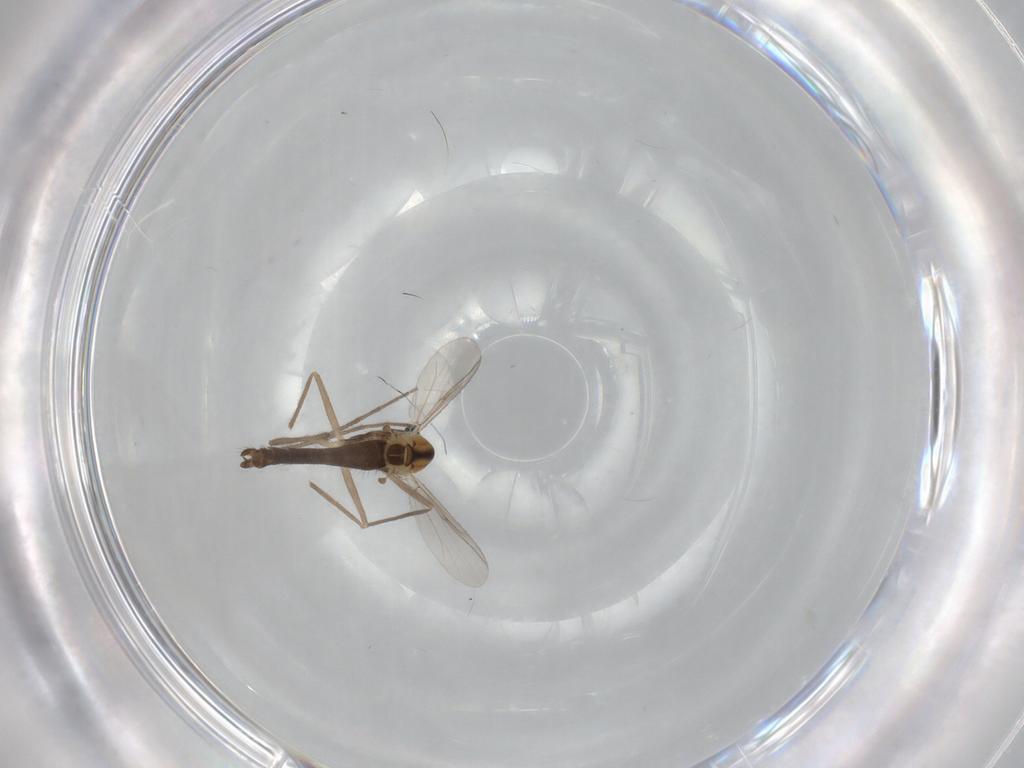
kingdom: Animalia
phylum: Arthropoda
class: Insecta
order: Diptera
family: Chironomidae
